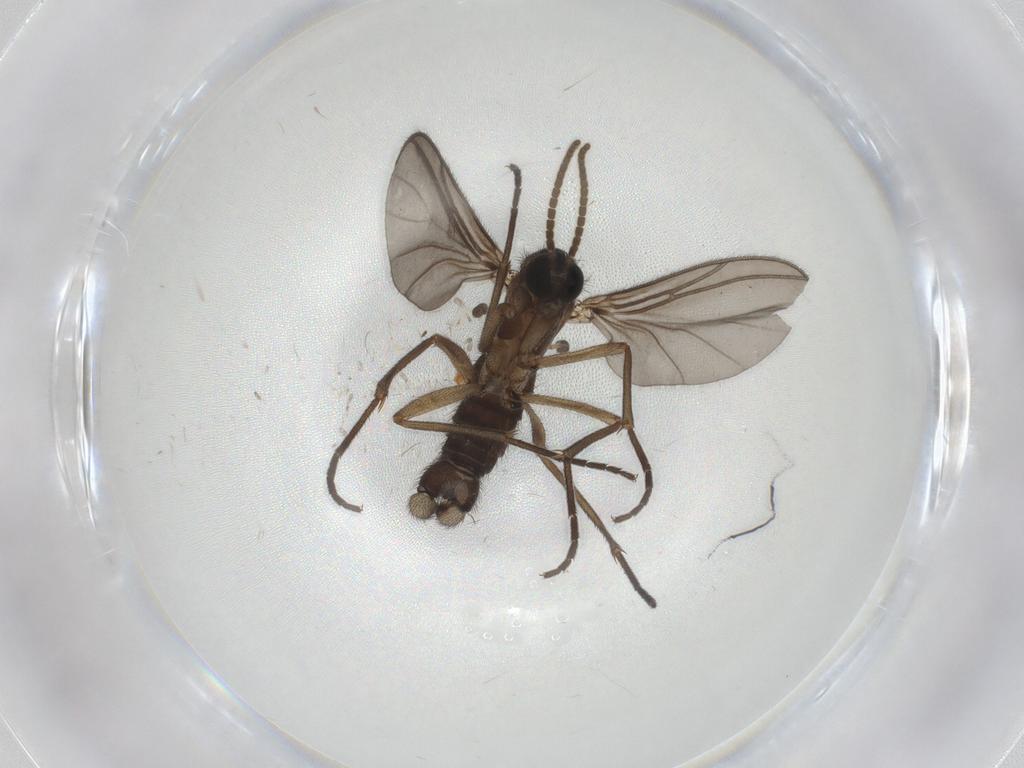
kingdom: Animalia
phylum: Arthropoda
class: Insecta
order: Diptera
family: Sciaridae
